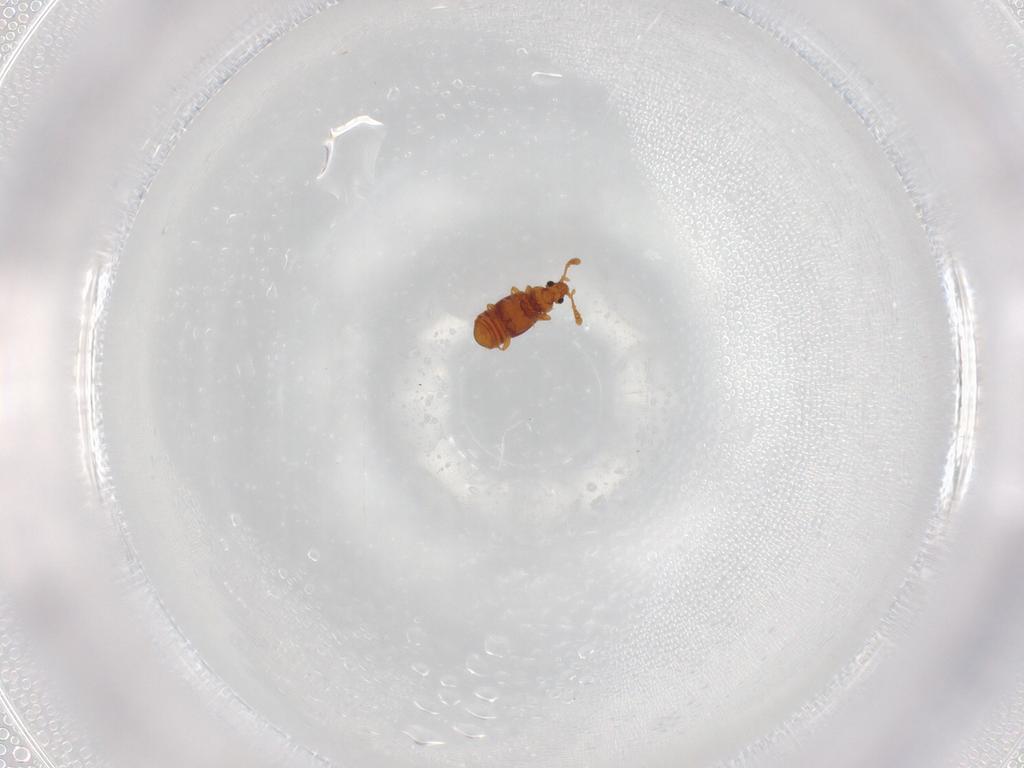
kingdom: Animalia
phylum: Arthropoda
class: Insecta
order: Coleoptera
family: Staphylinidae
